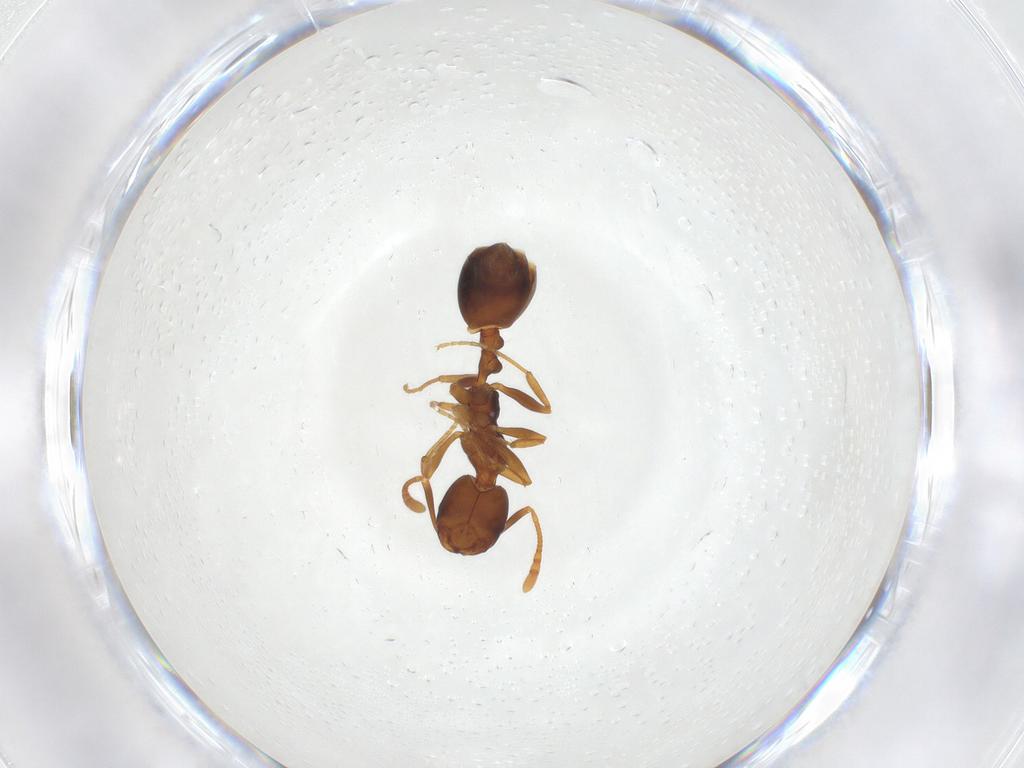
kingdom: Animalia
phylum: Arthropoda
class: Insecta
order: Hymenoptera
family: Formicidae
